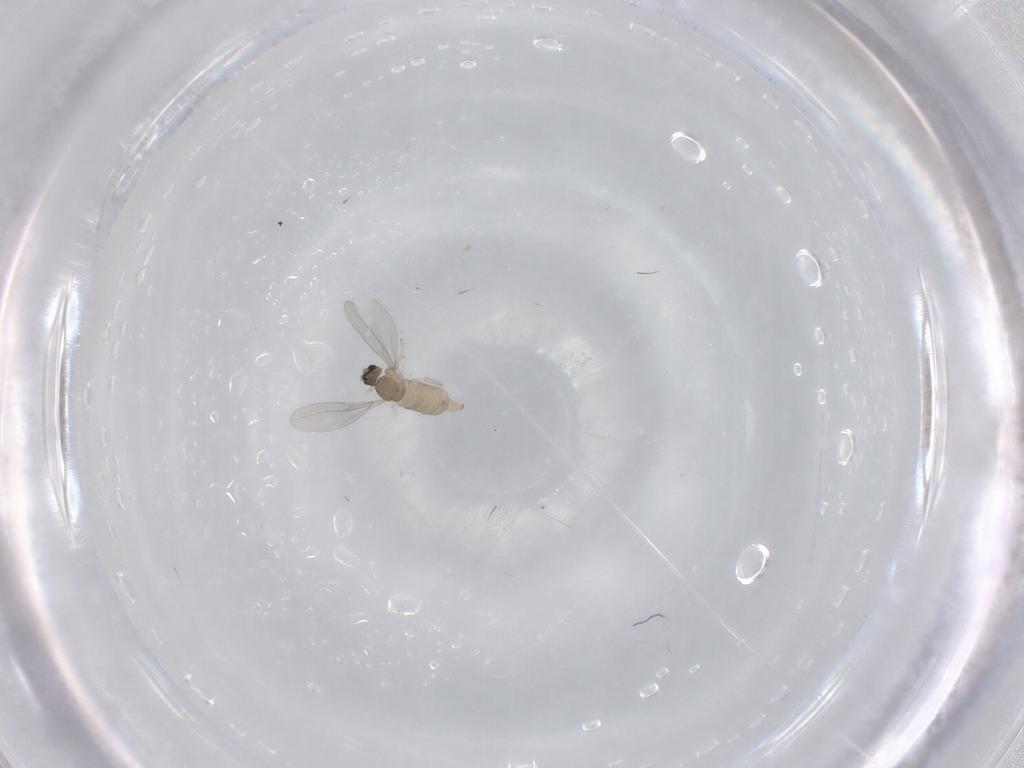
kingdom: Animalia
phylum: Arthropoda
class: Insecta
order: Diptera
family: Cecidomyiidae
